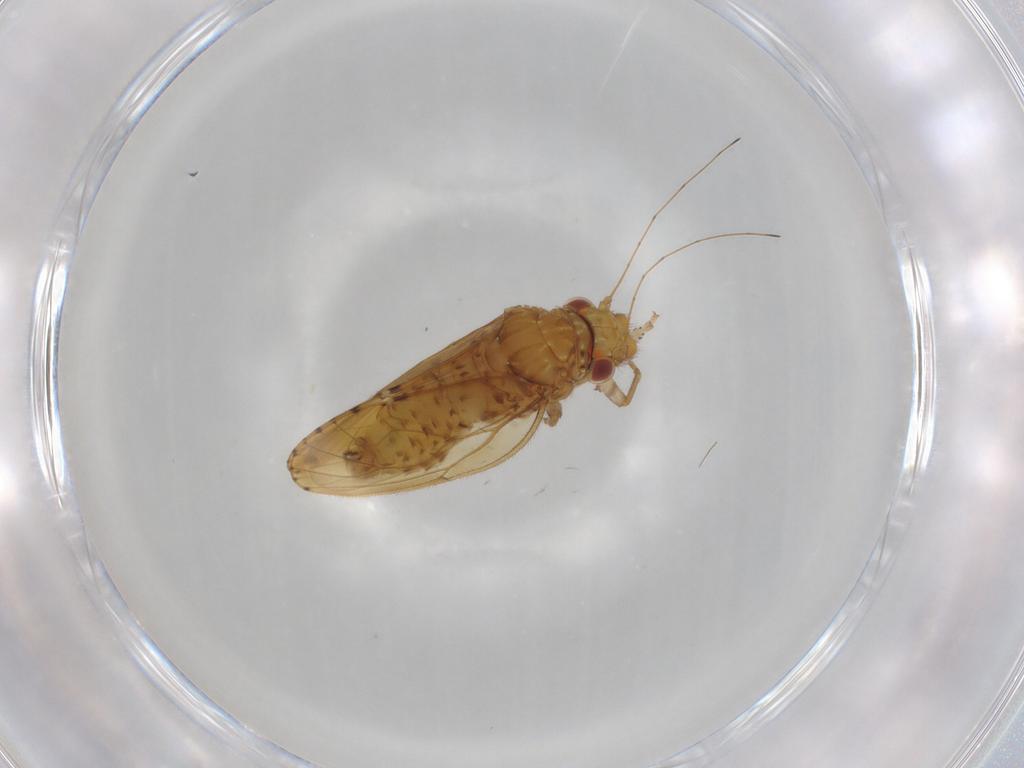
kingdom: Animalia
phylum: Arthropoda
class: Insecta
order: Hemiptera
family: Cicadellidae
